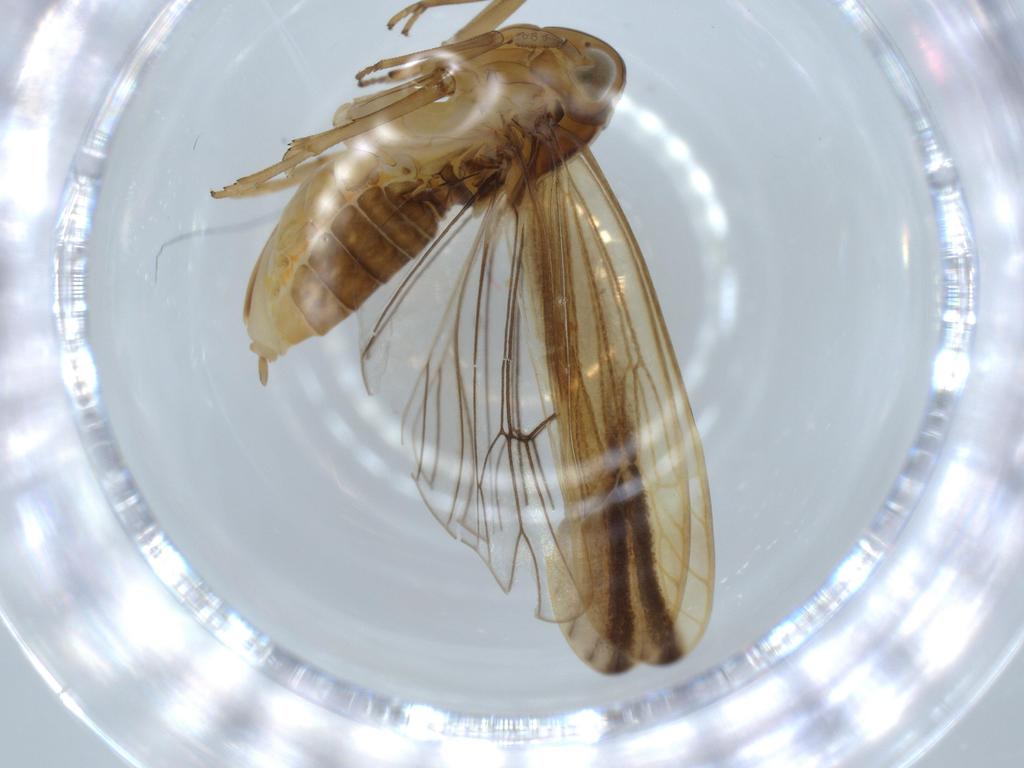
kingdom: Animalia
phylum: Arthropoda
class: Insecta
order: Hemiptera
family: Delphacidae
